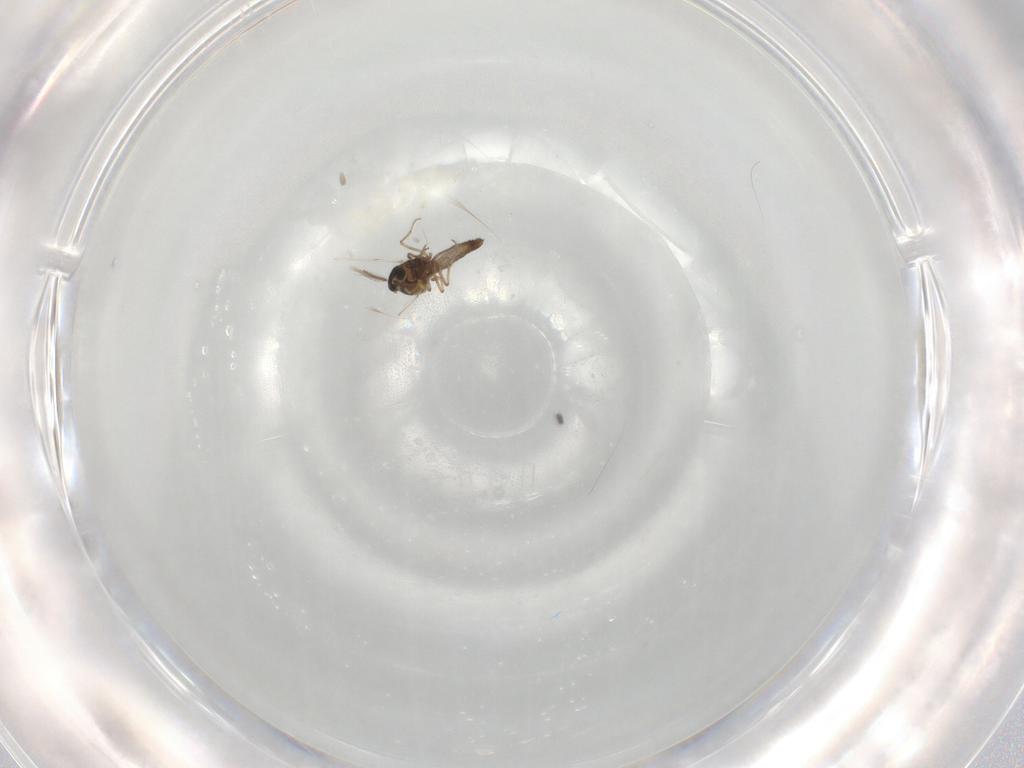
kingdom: Animalia
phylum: Arthropoda
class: Insecta
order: Diptera
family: Ceratopogonidae
